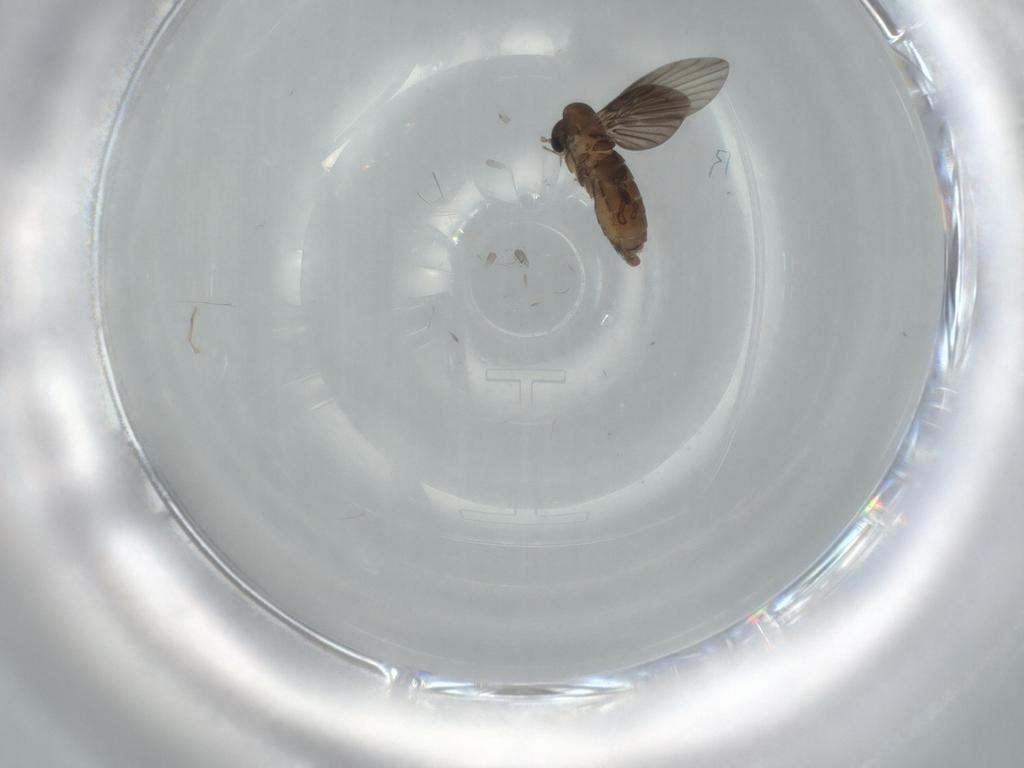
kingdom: Animalia
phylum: Arthropoda
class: Insecta
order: Diptera
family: Psychodidae
